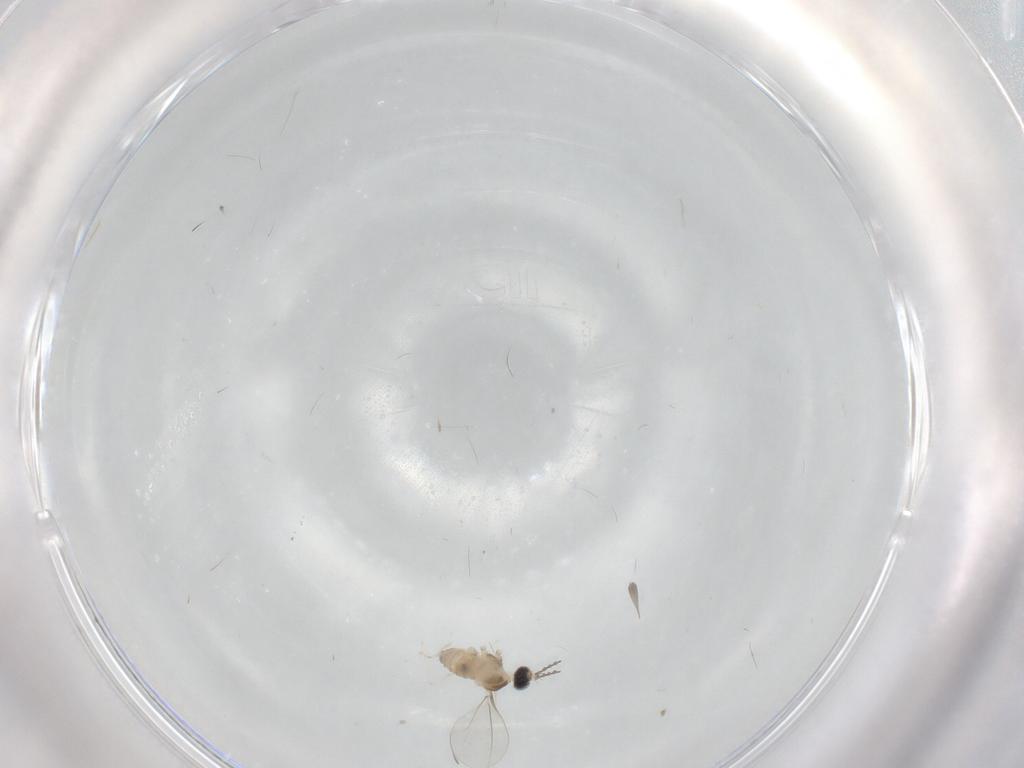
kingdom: Animalia
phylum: Arthropoda
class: Insecta
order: Diptera
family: Cecidomyiidae
